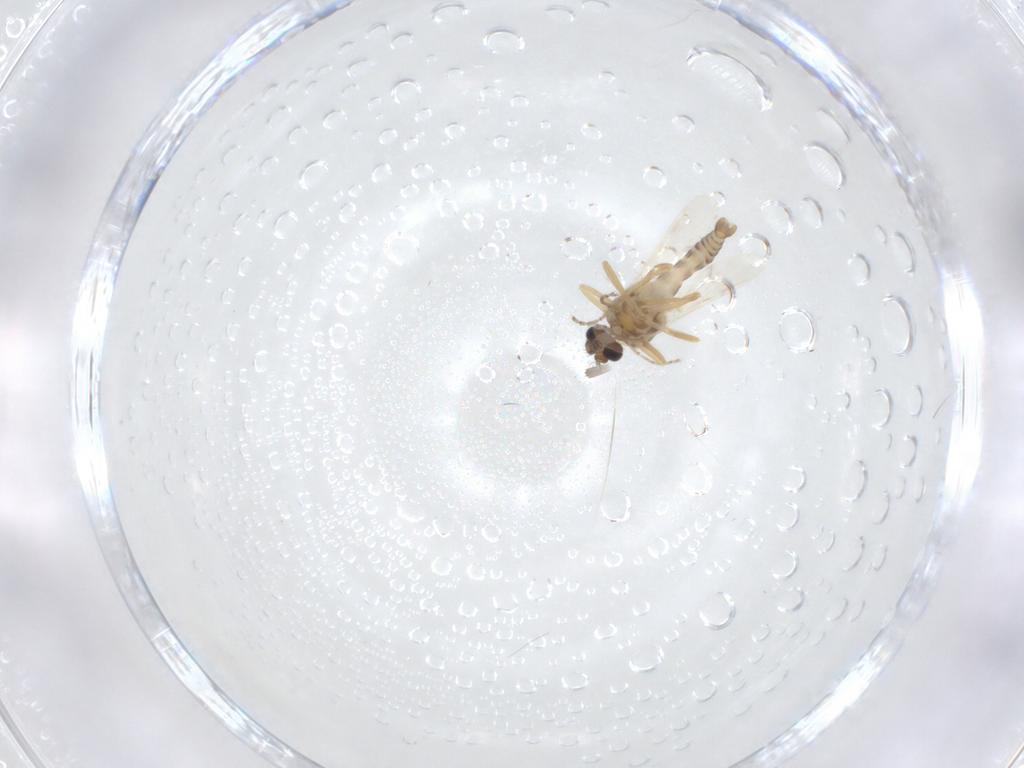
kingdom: Animalia
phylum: Arthropoda
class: Insecta
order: Diptera
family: Ceratopogonidae
